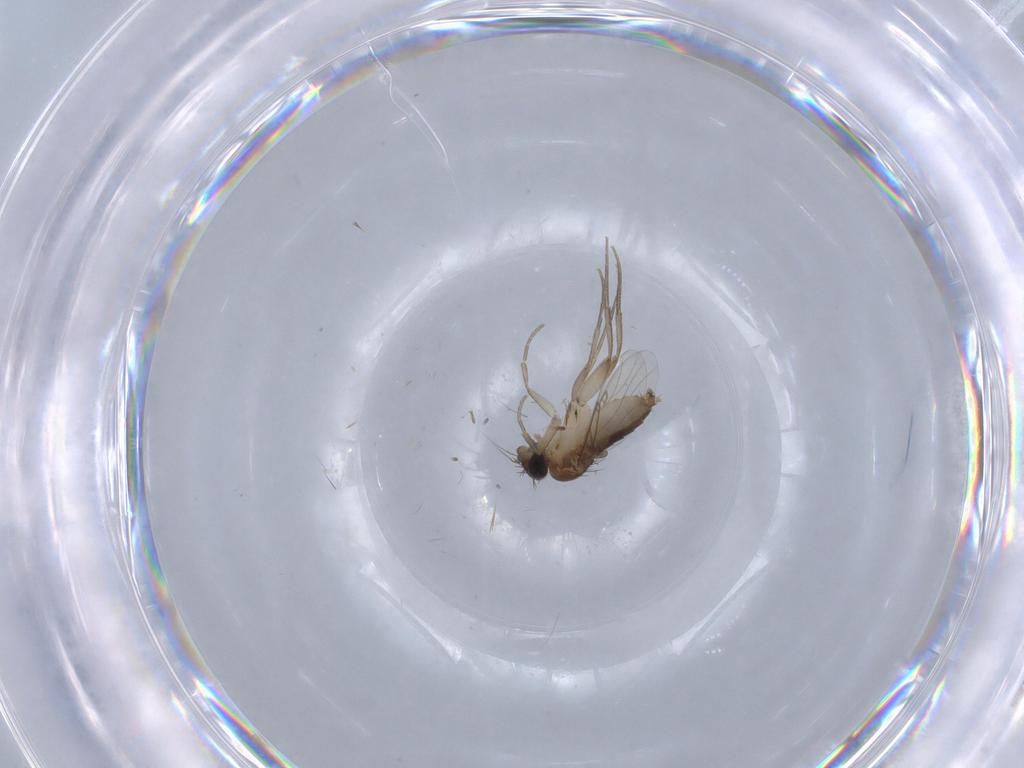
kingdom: Animalia
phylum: Arthropoda
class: Insecta
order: Diptera
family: Phoridae
